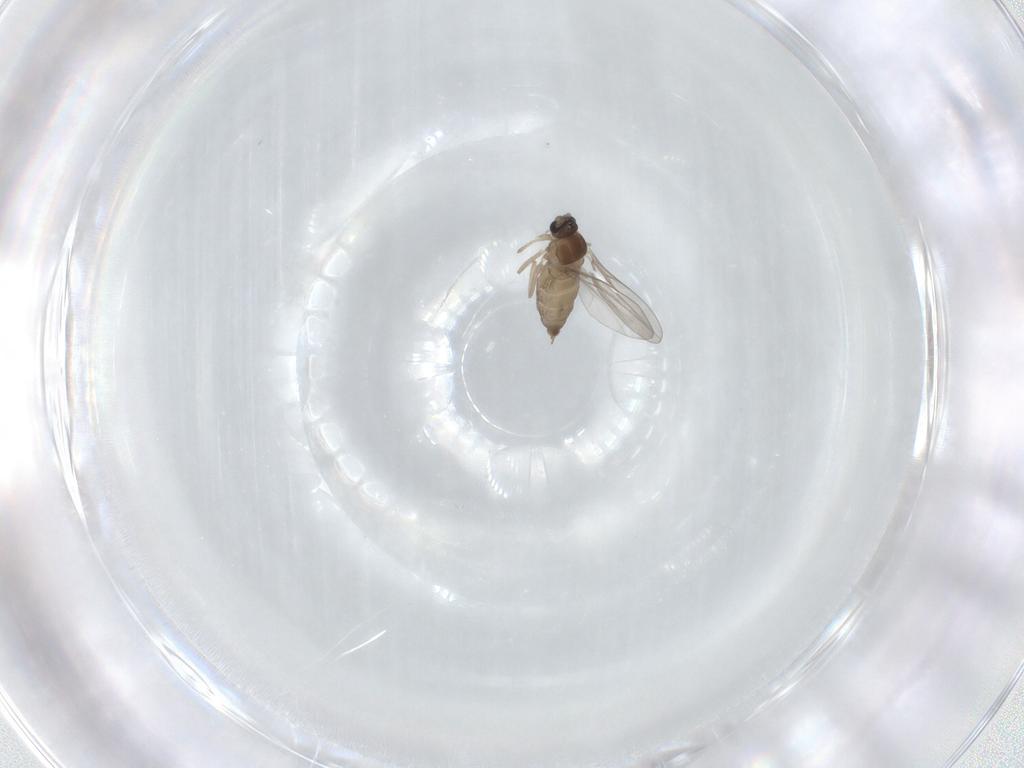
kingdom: Animalia
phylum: Arthropoda
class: Insecta
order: Diptera
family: Cecidomyiidae
